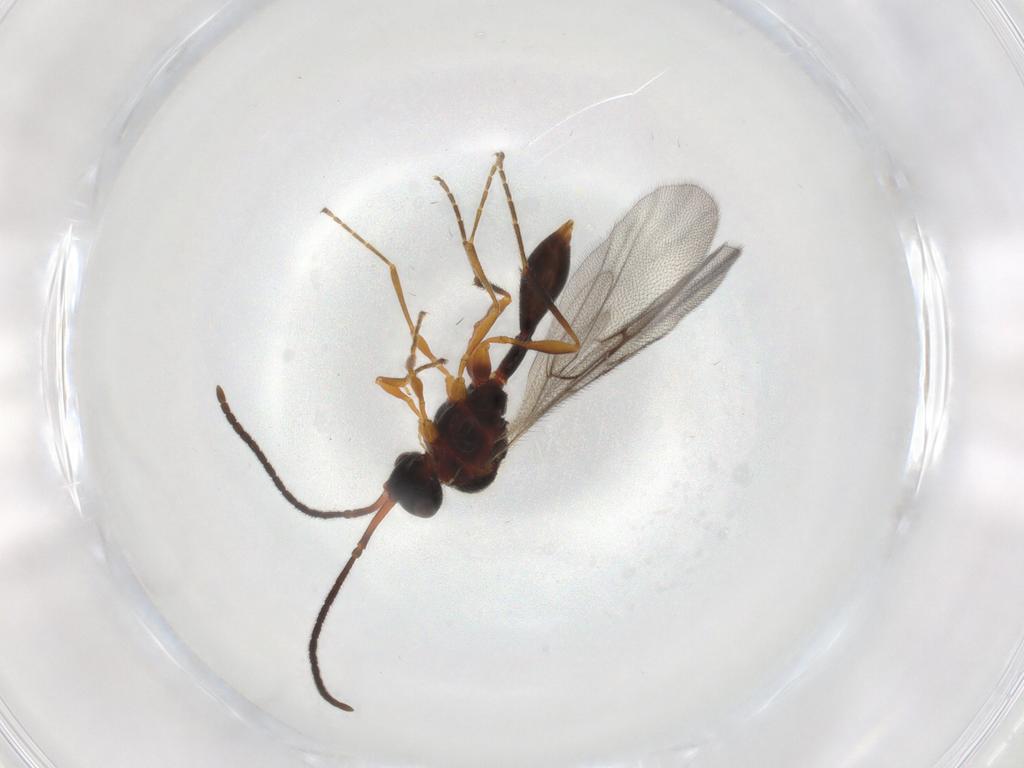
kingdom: Animalia
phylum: Arthropoda
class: Insecta
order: Hymenoptera
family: Diapriidae
